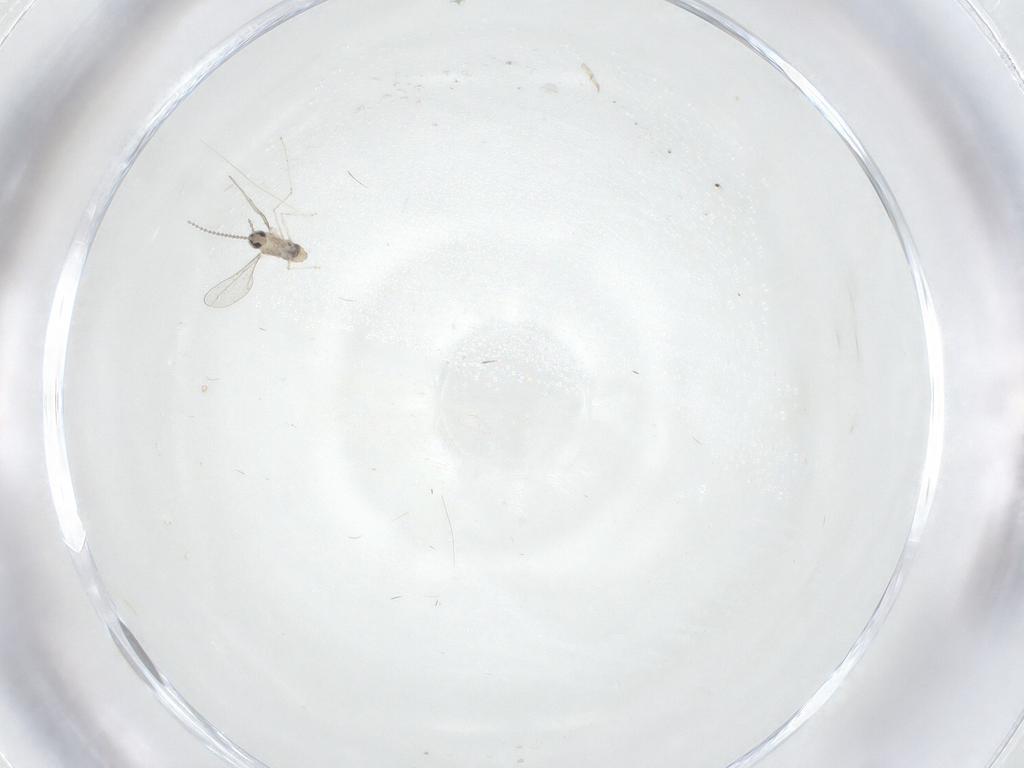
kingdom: Animalia
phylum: Arthropoda
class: Insecta
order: Diptera
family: Cecidomyiidae
